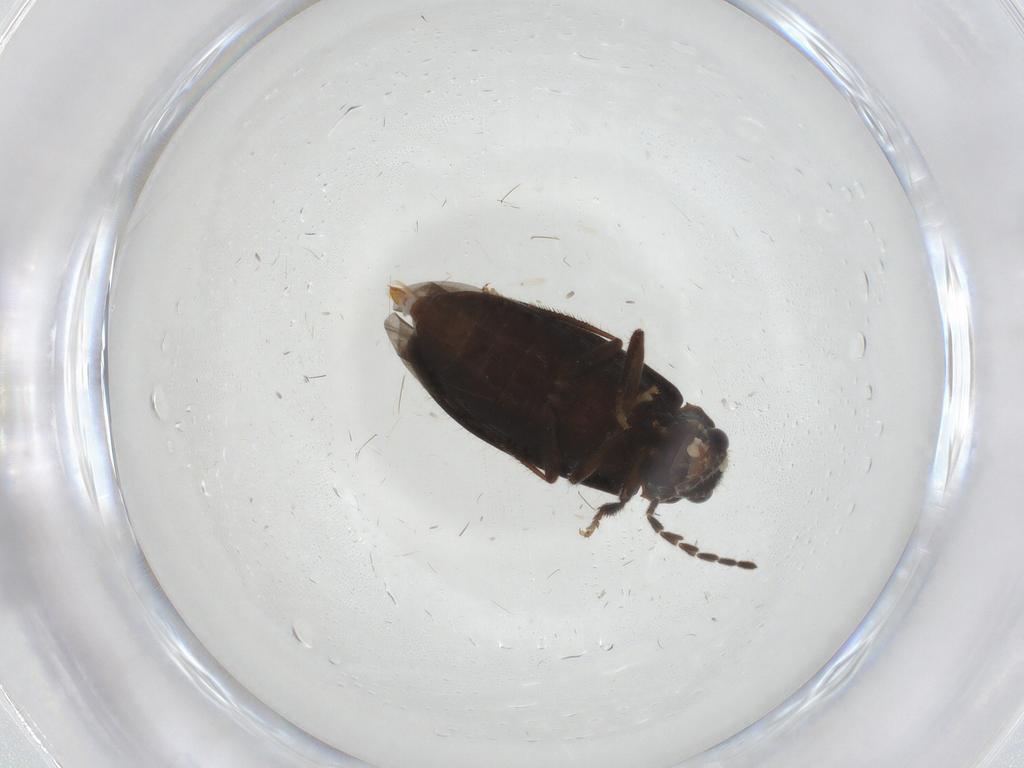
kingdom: Animalia
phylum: Arthropoda
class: Insecta
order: Coleoptera
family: Ptilodactylidae
